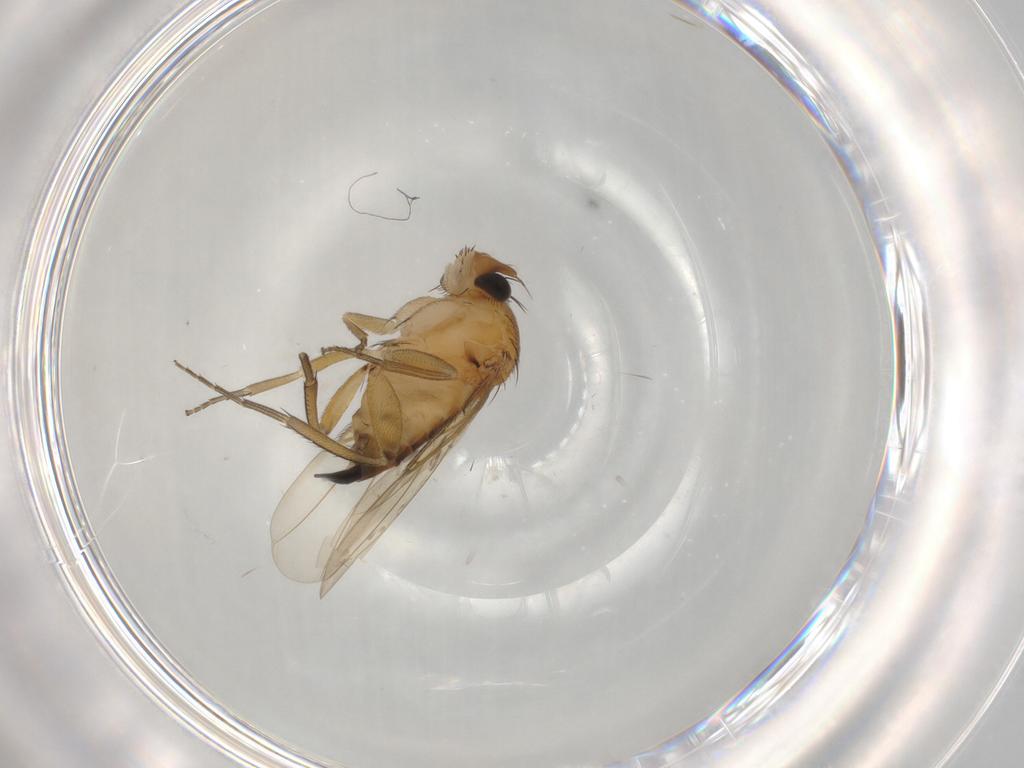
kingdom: Animalia
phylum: Arthropoda
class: Insecta
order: Diptera
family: Phoridae
